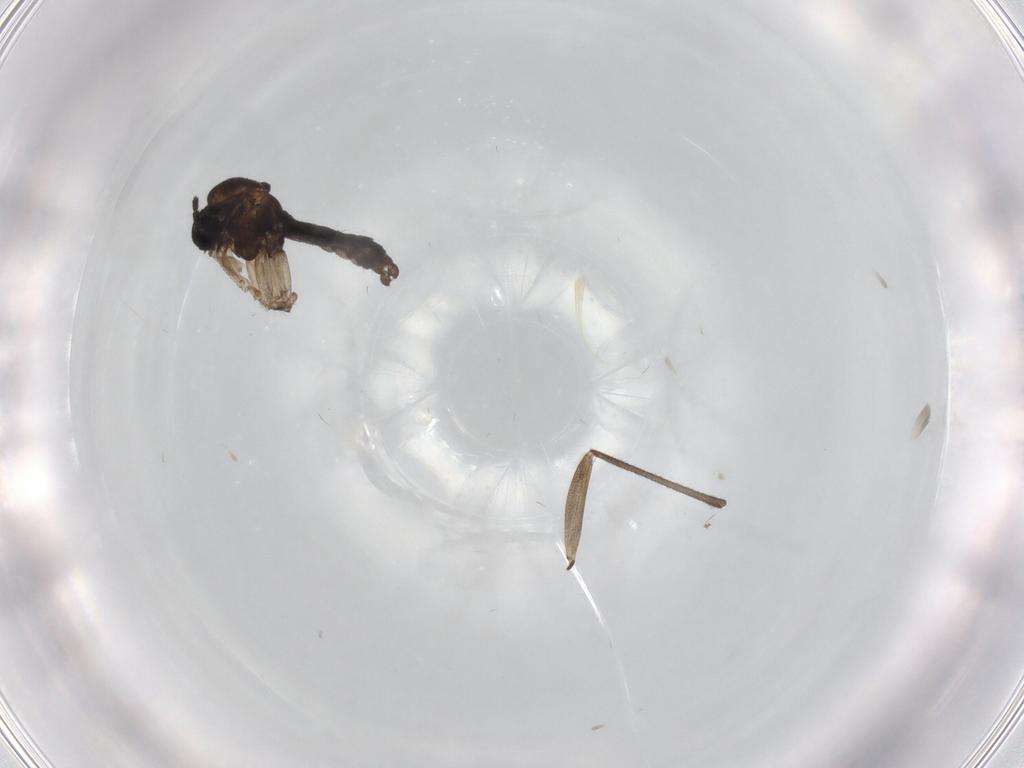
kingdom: Animalia
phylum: Arthropoda
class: Insecta
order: Diptera
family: Sciaridae
